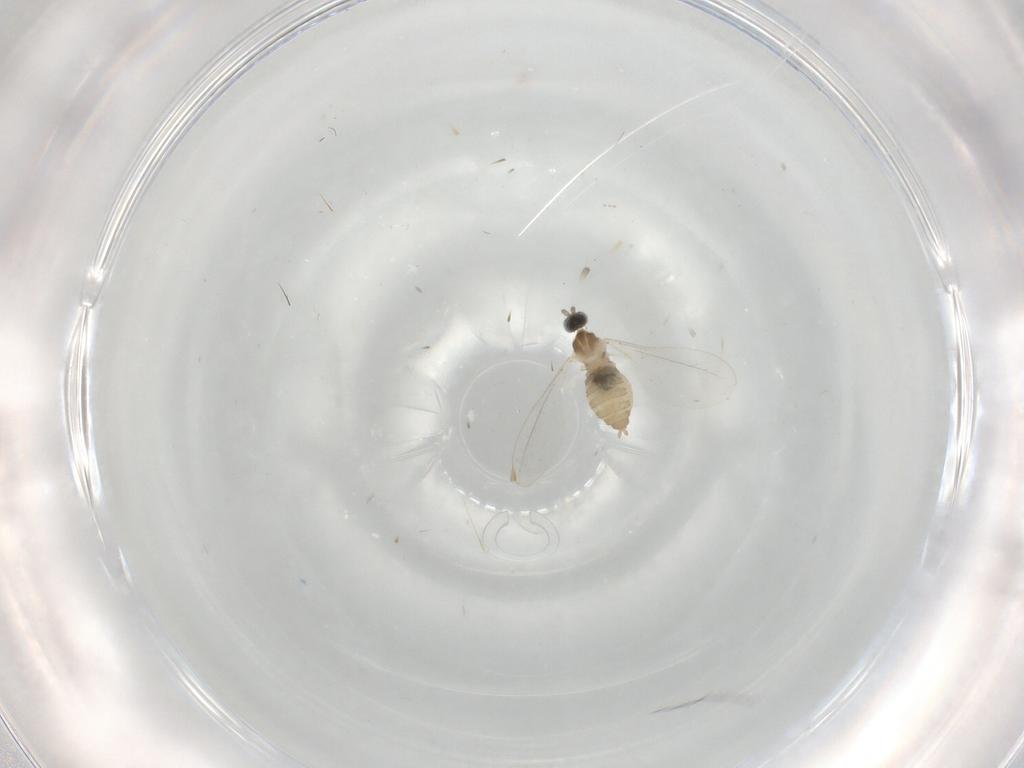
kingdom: Animalia
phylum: Arthropoda
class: Insecta
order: Diptera
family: Cecidomyiidae
